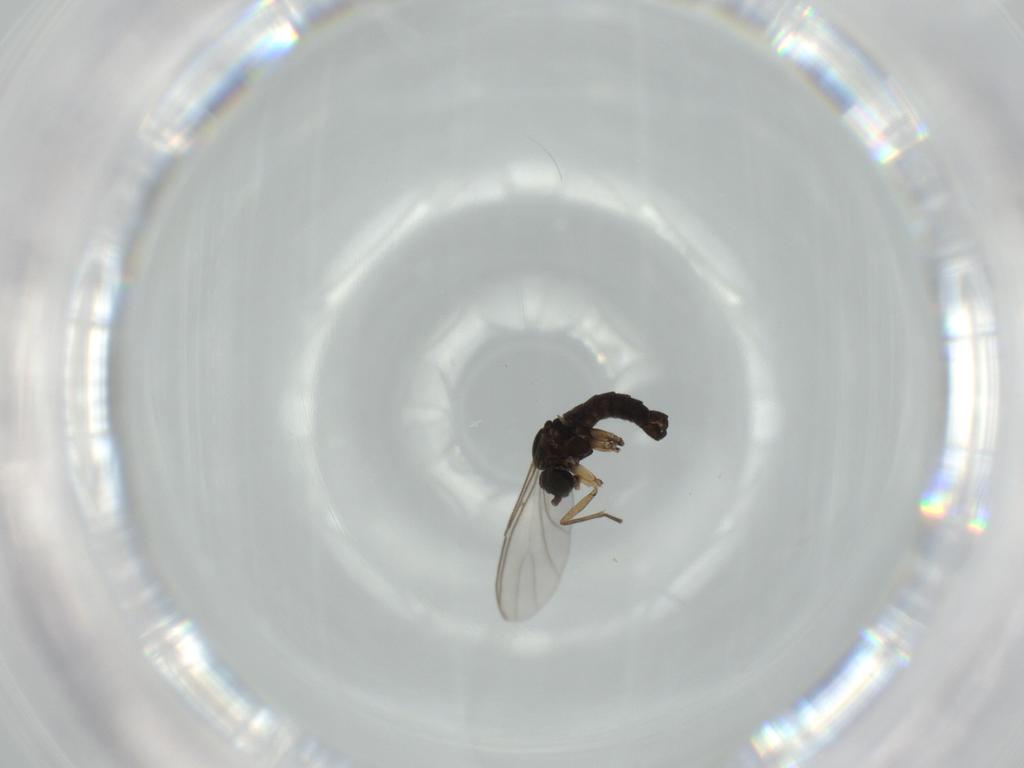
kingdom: Animalia
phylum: Arthropoda
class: Insecta
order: Diptera
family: Sciaridae
